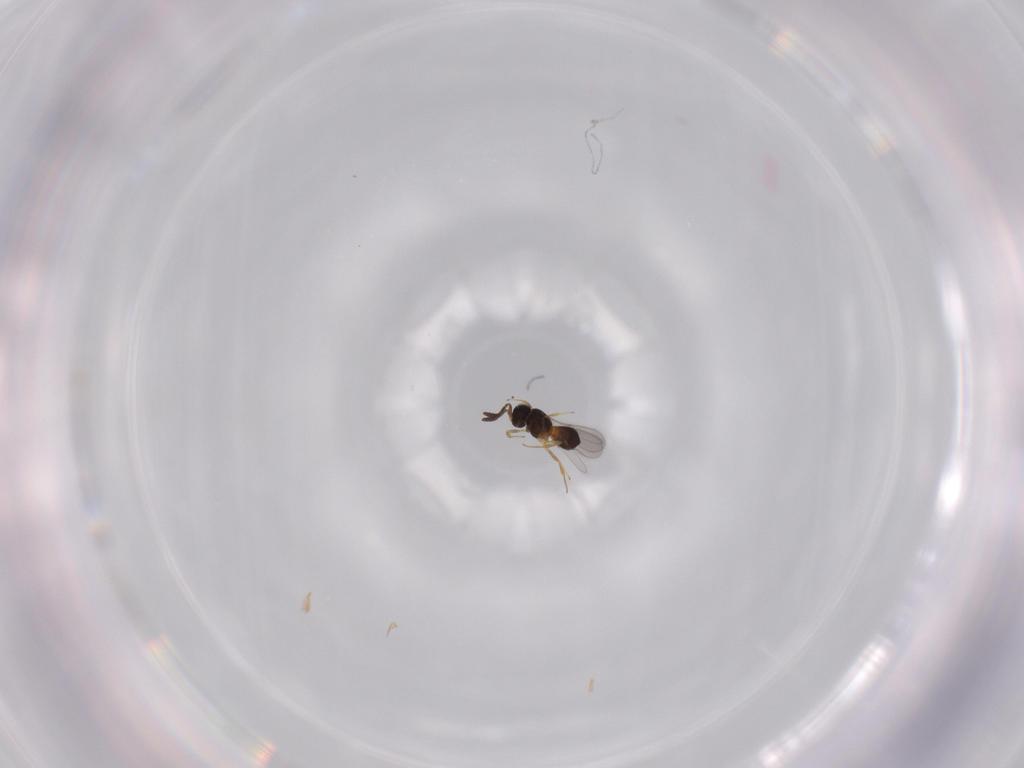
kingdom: Animalia
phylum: Arthropoda
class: Insecta
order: Hymenoptera
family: Scelionidae
